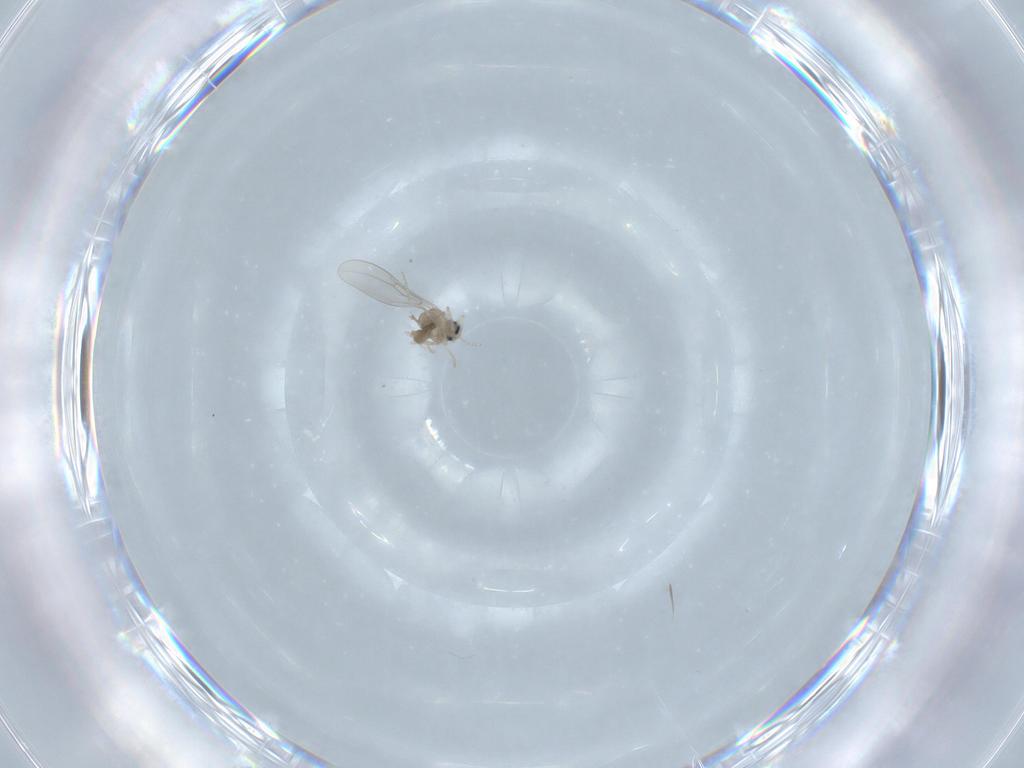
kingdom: Animalia
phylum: Arthropoda
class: Insecta
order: Diptera
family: Cecidomyiidae
